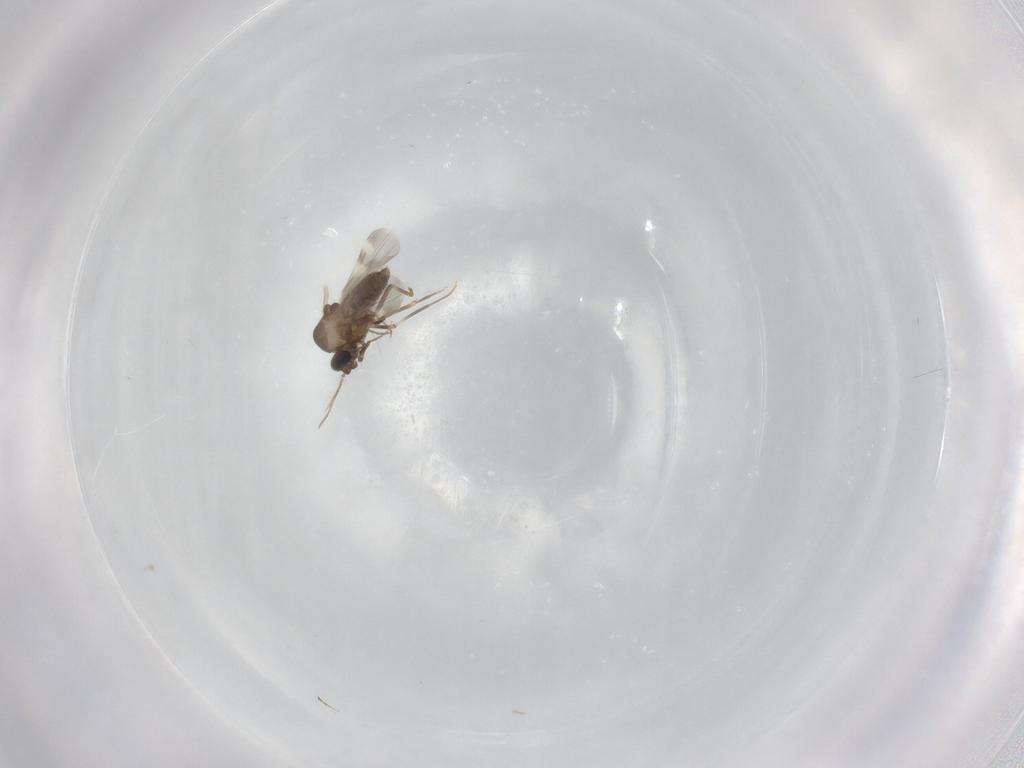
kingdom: Animalia
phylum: Arthropoda
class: Insecta
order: Diptera
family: Psychodidae
